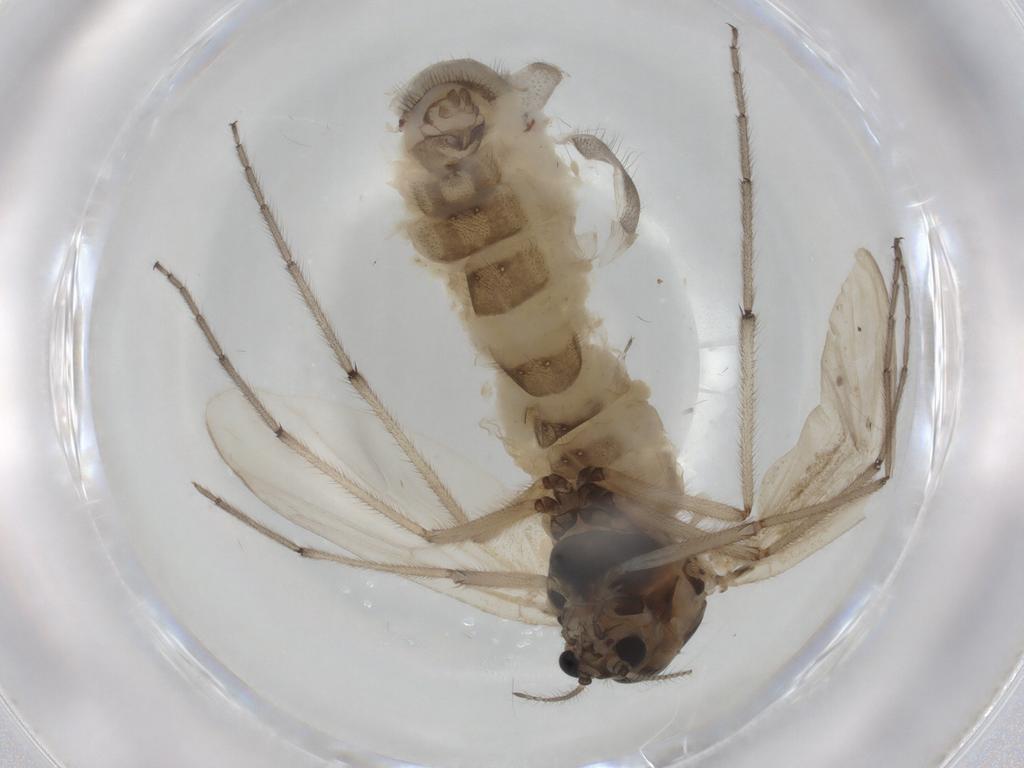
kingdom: Animalia
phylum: Arthropoda
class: Insecta
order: Diptera
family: Chironomidae
